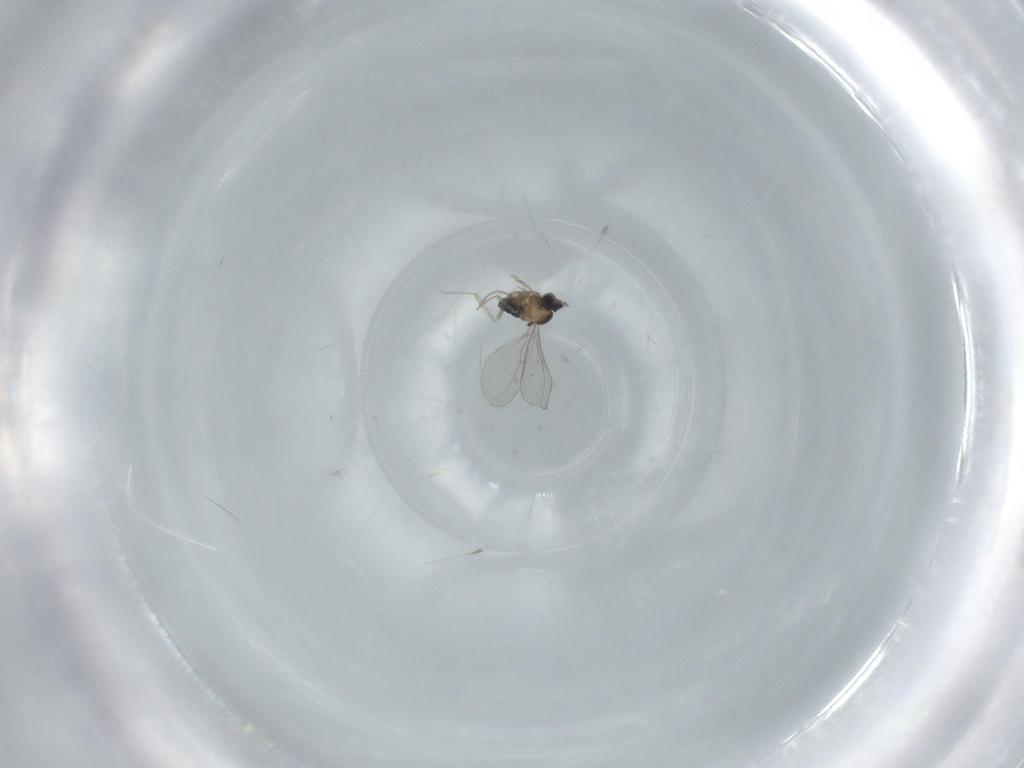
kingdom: Animalia
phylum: Arthropoda
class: Insecta
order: Diptera
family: Cecidomyiidae
